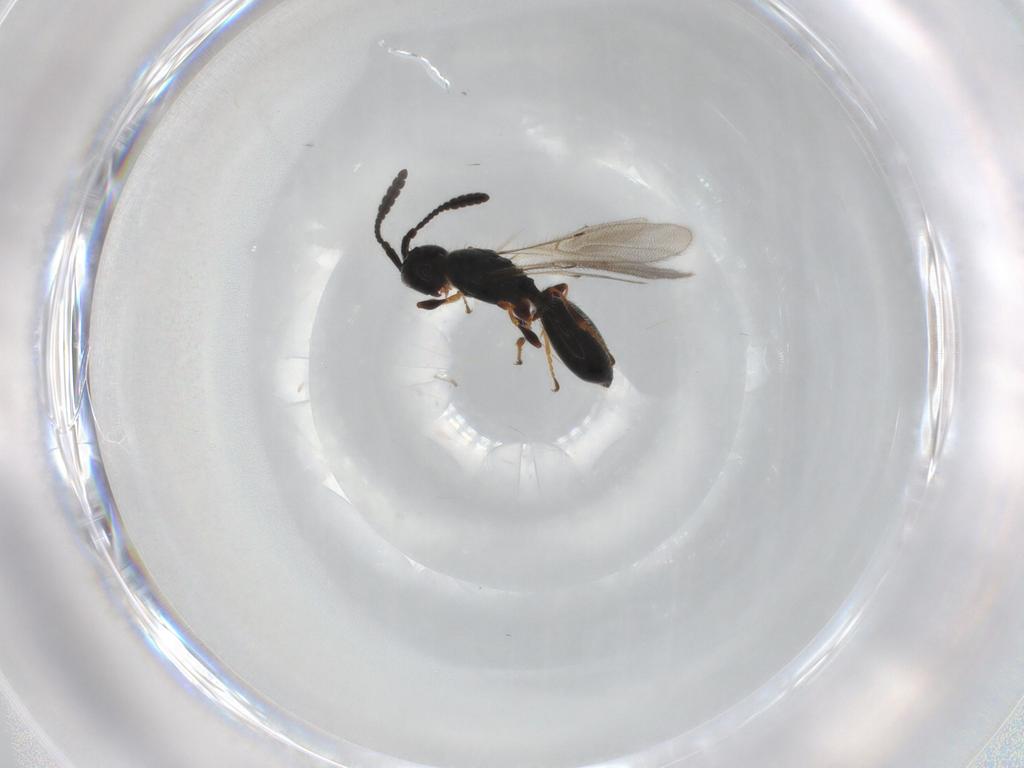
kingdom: Animalia
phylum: Arthropoda
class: Insecta
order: Hymenoptera
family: Diapriidae
